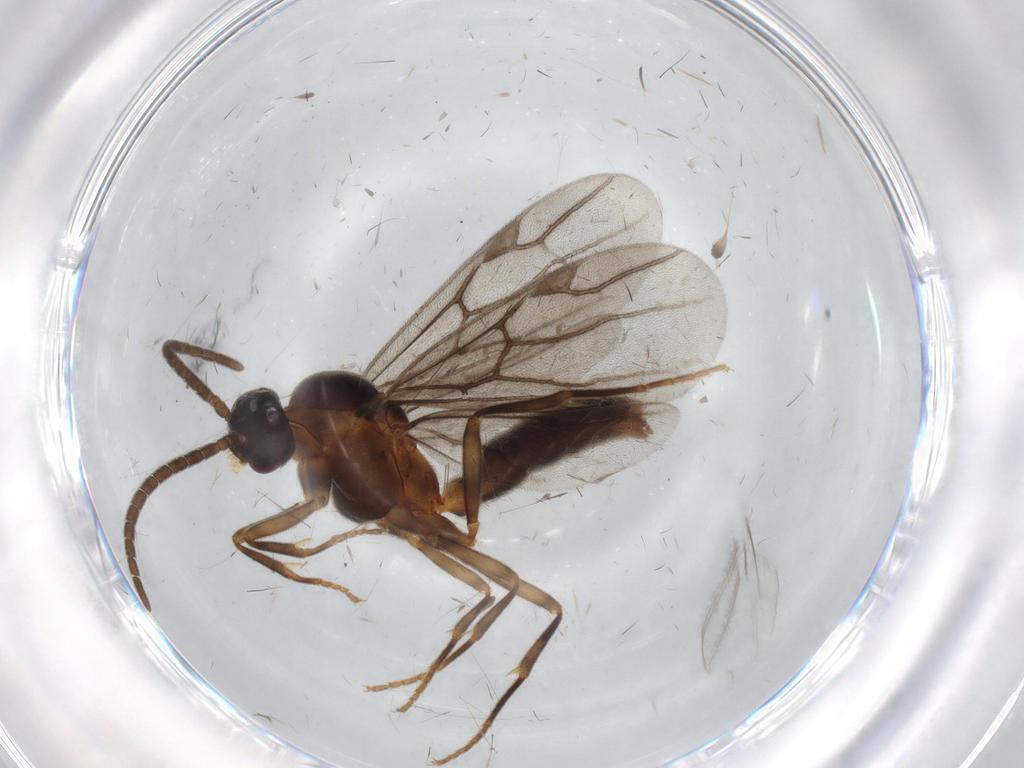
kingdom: Animalia
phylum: Arthropoda
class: Insecta
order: Hymenoptera
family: Formicidae
